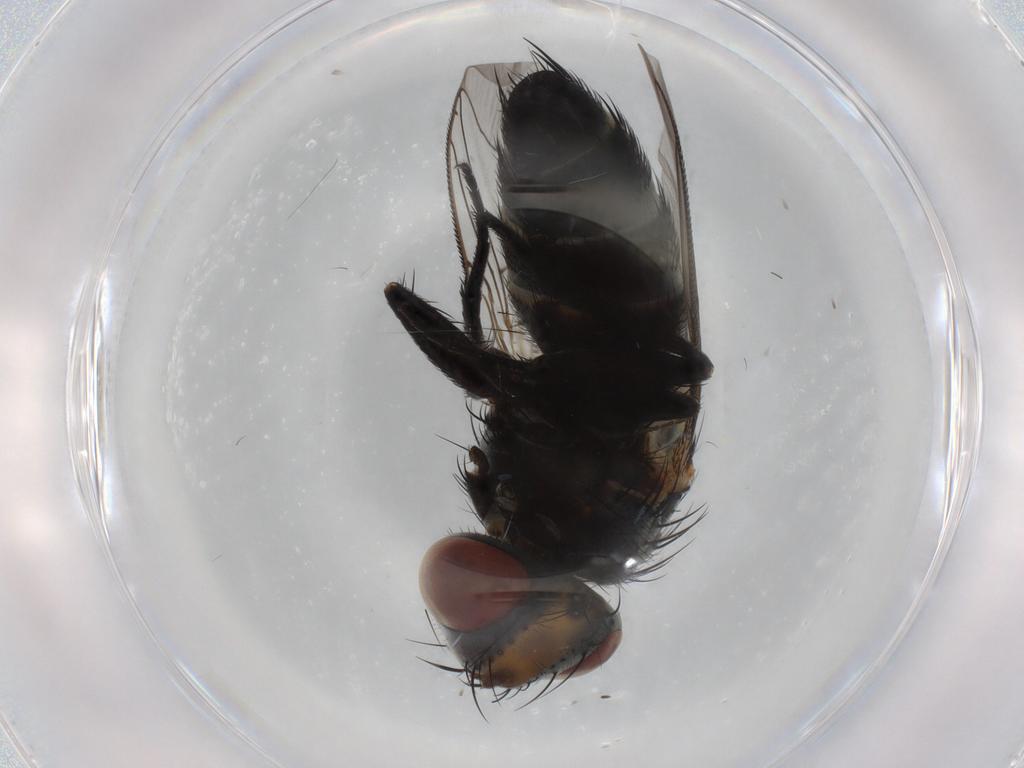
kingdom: Animalia
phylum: Arthropoda
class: Insecta
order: Diptera
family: Sarcophagidae
